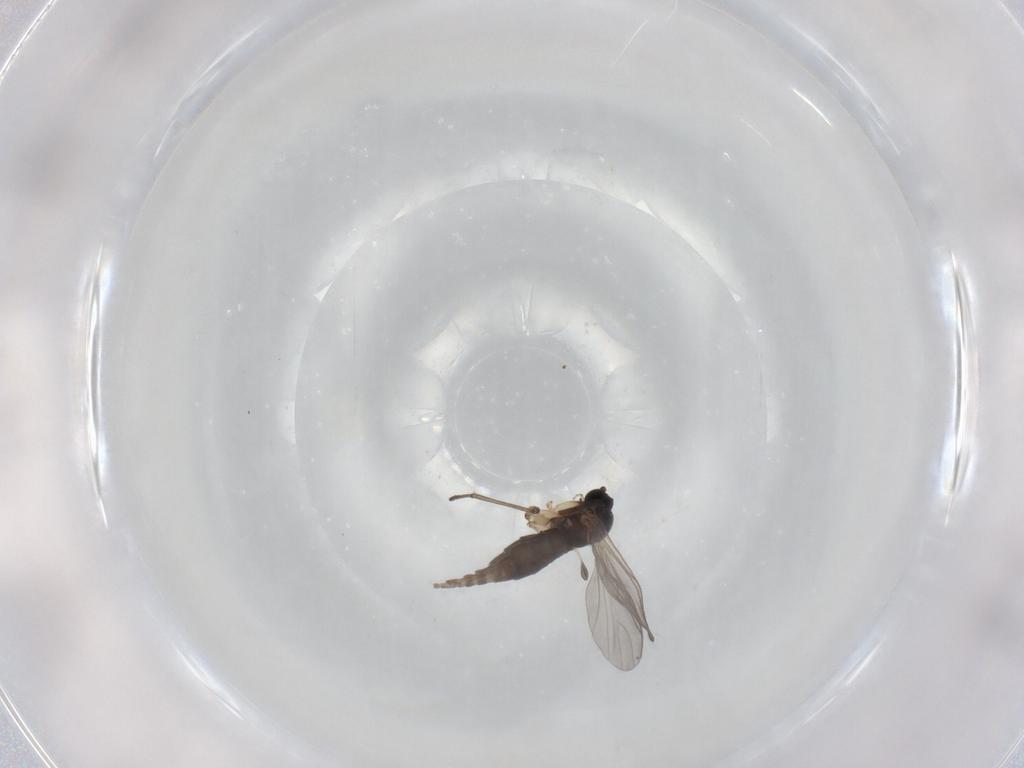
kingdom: Animalia
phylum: Arthropoda
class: Insecta
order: Diptera
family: Sciaridae
